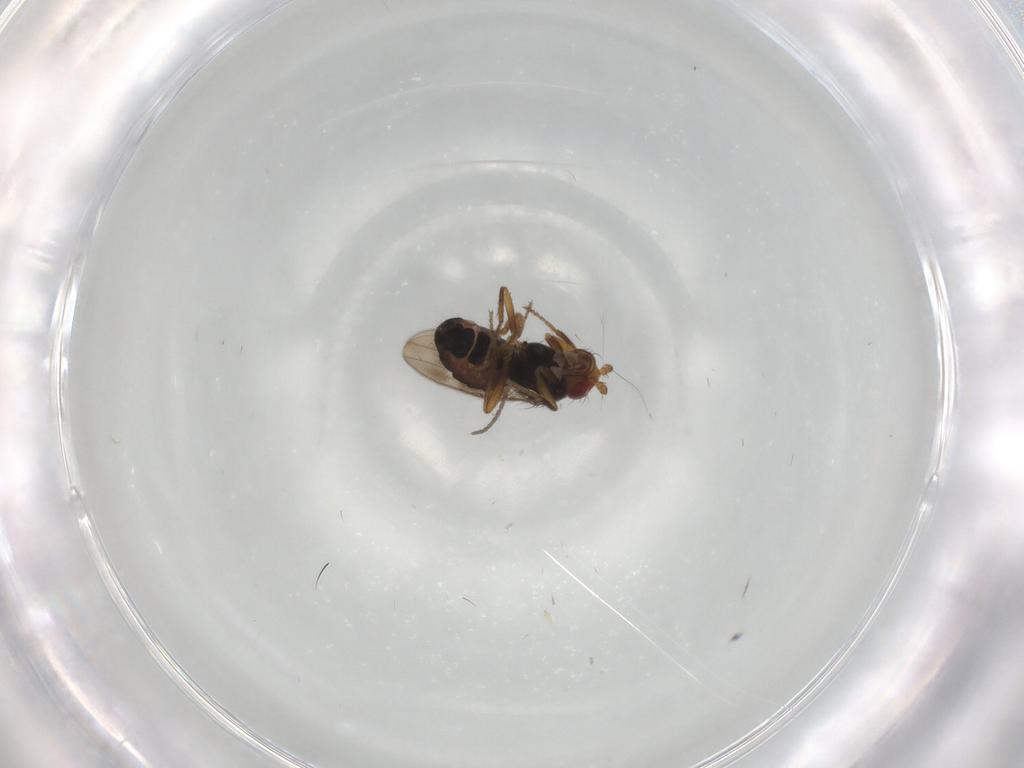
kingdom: Animalia
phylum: Arthropoda
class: Insecta
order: Diptera
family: Sphaeroceridae
